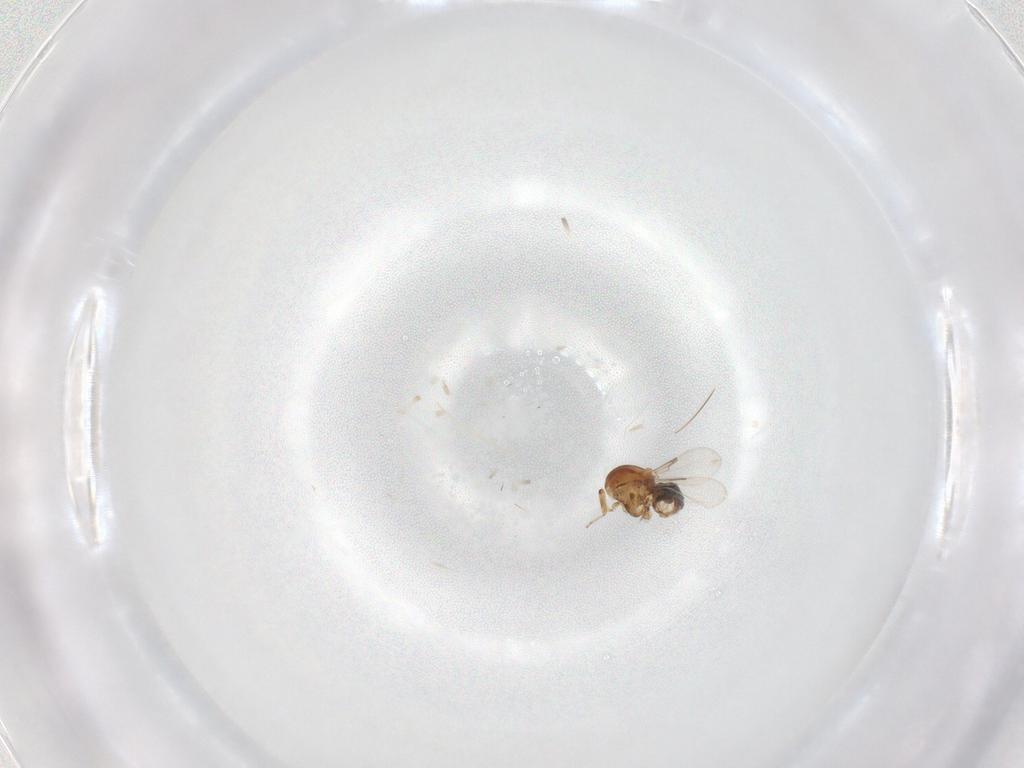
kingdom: Animalia
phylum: Arthropoda
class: Insecta
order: Diptera
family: Ceratopogonidae
